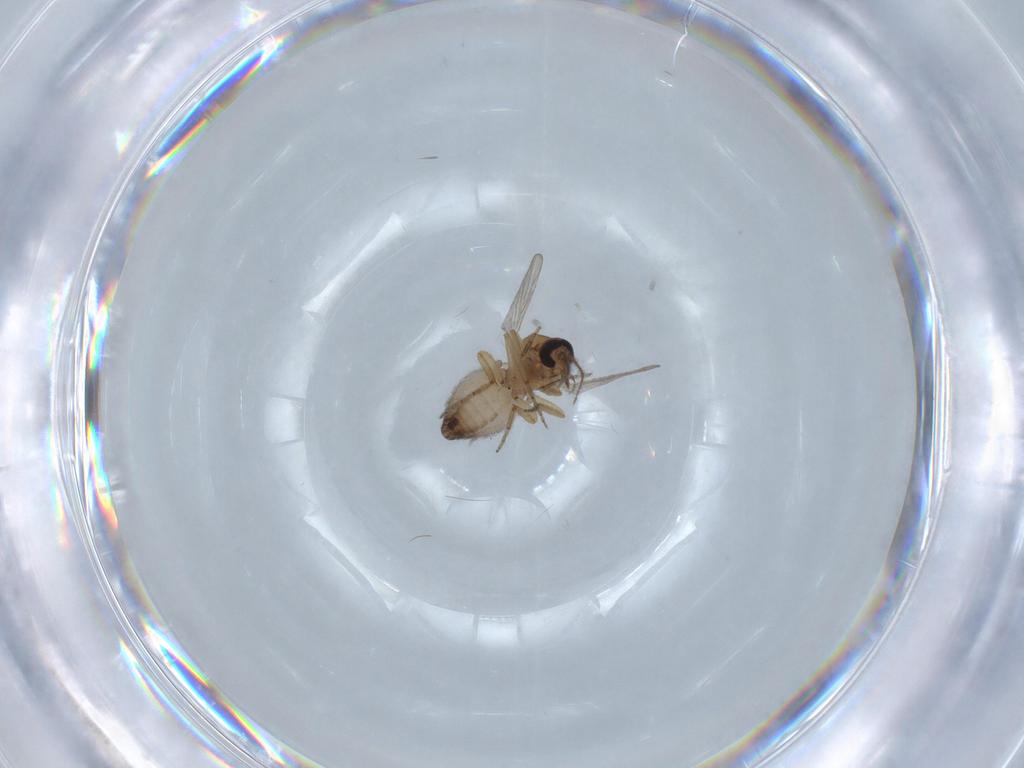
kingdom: Animalia
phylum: Arthropoda
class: Insecta
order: Diptera
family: Ceratopogonidae
